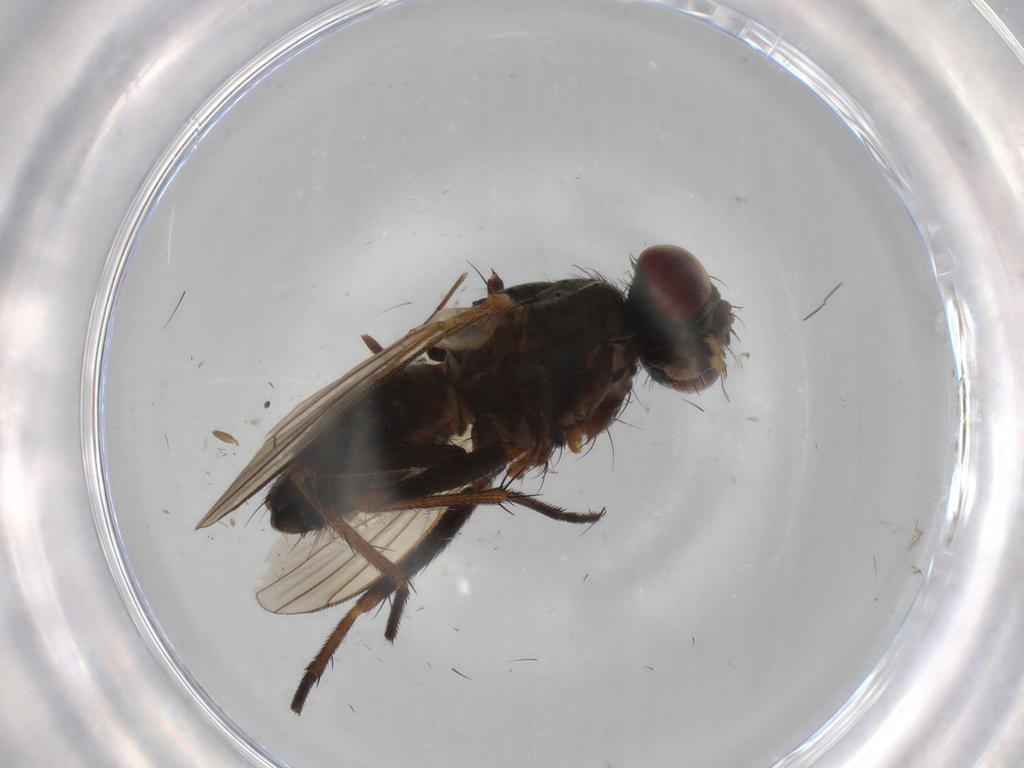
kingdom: Animalia
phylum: Arthropoda
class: Insecta
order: Diptera
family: Dolichopodidae
